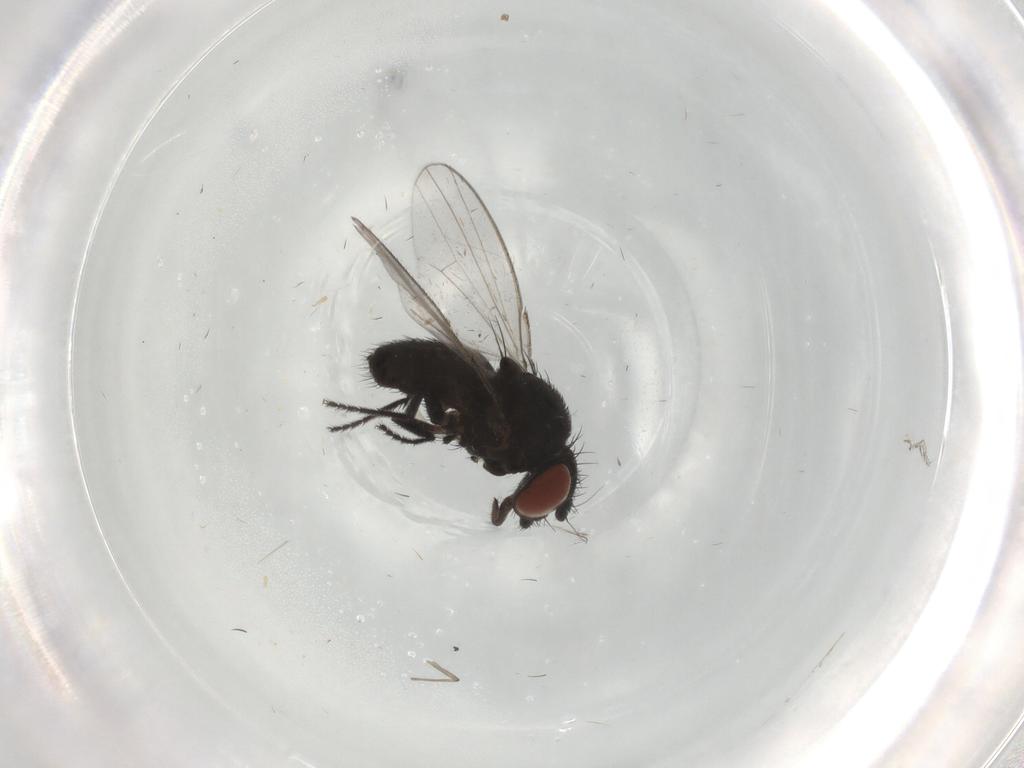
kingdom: Animalia
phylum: Arthropoda
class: Insecta
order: Diptera
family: Milichiidae
